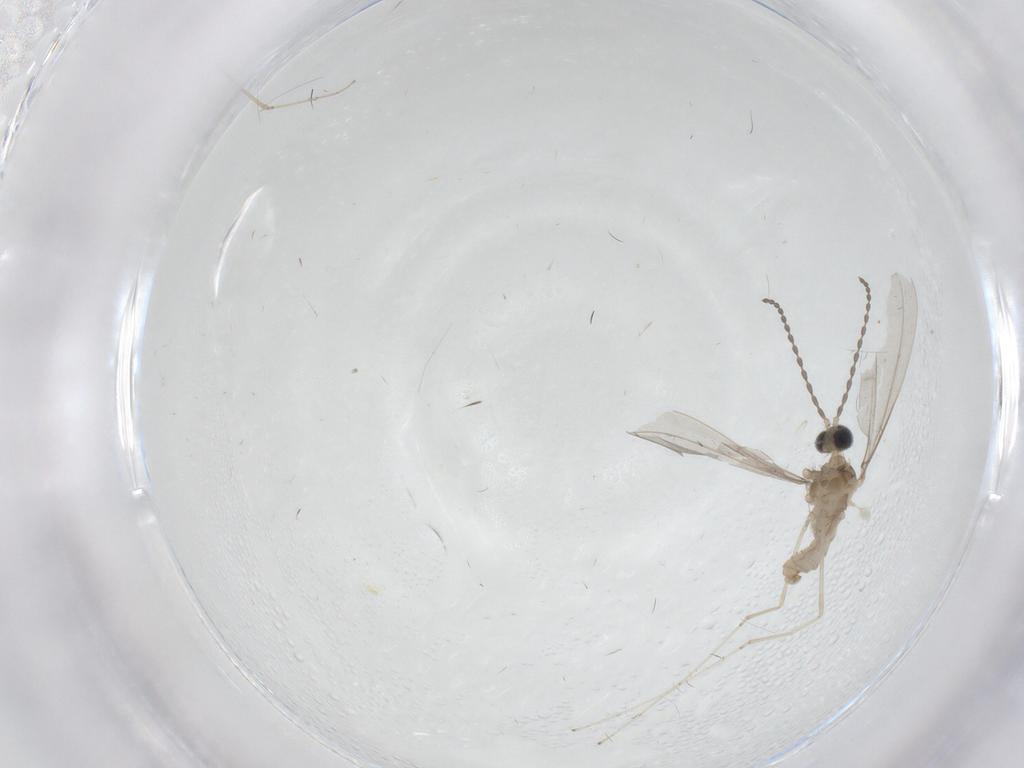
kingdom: Animalia
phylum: Arthropoda
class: Insecta
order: Diptera
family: Cecidomyiidae
